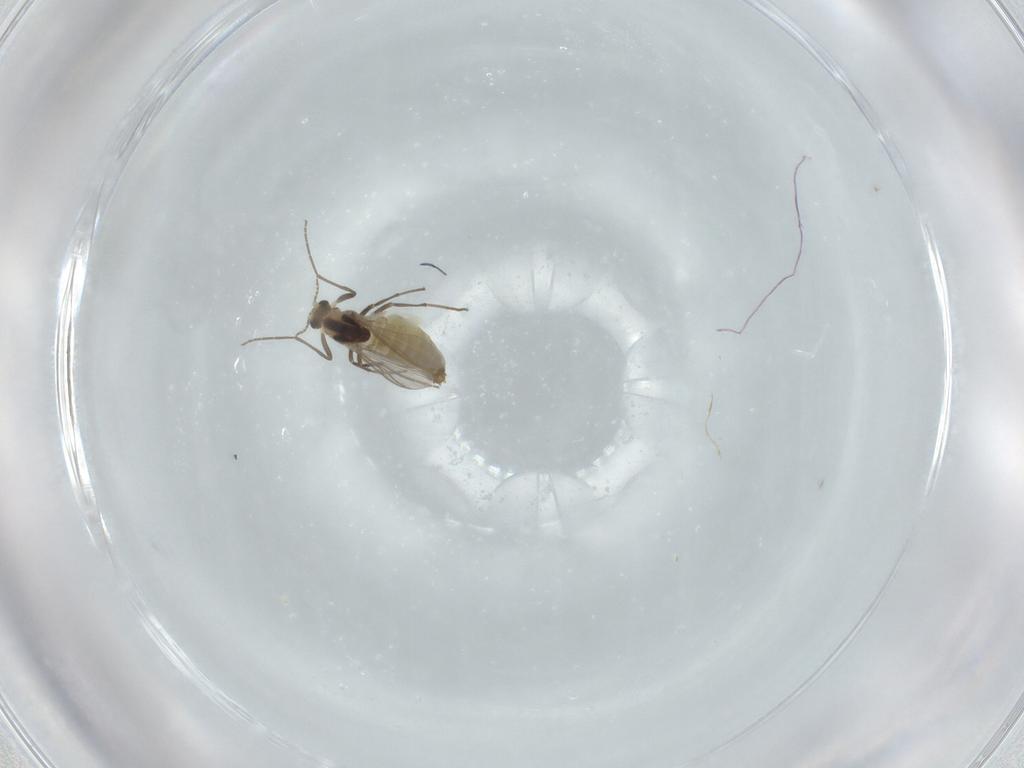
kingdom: Animalia
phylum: Arthropoda
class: Insecta
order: Diptera
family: Chironomidae
